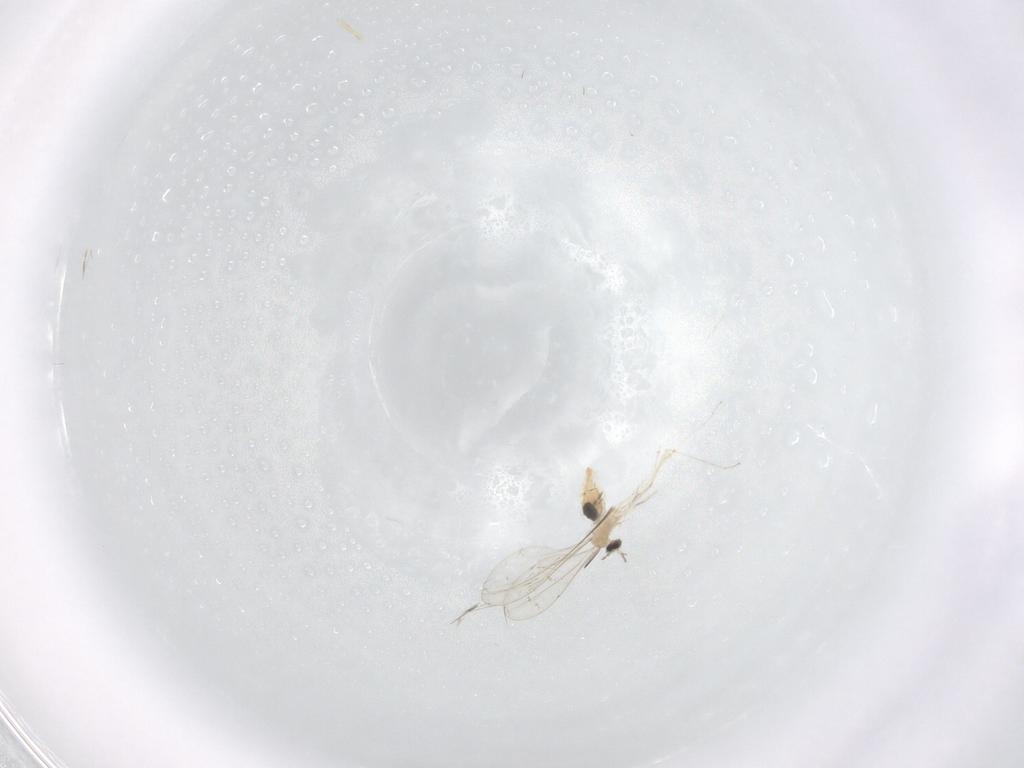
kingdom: Animalia
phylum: Arthropoda
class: Insecta
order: Diptera
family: Cecidomyiidae
